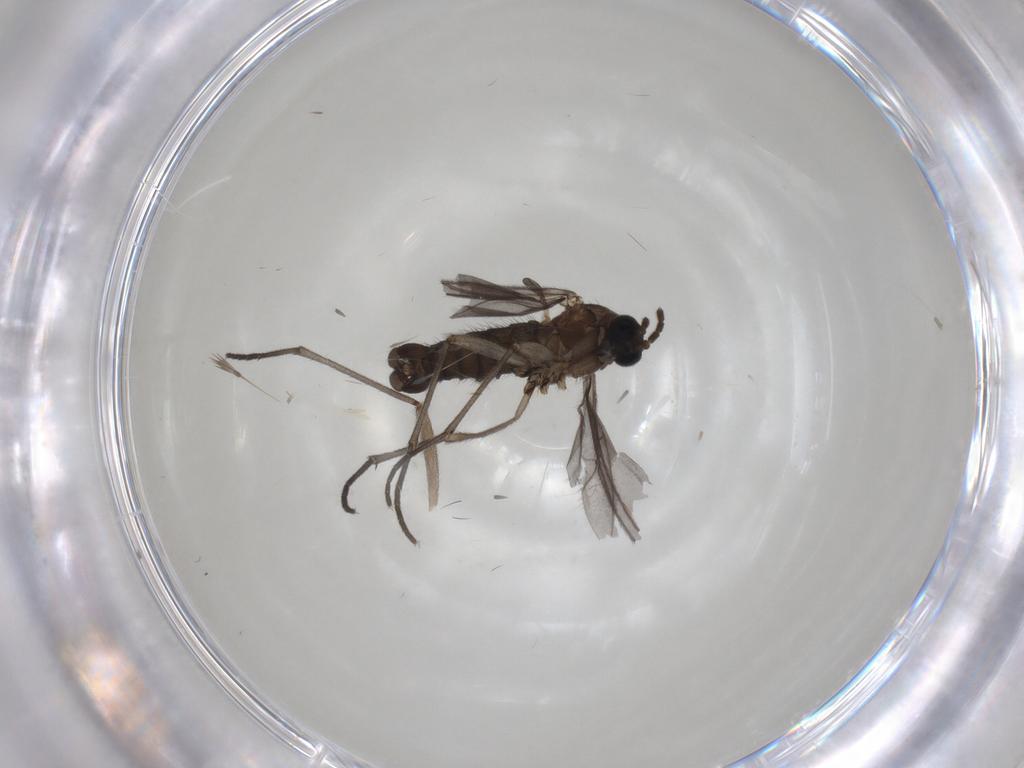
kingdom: Animalia
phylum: Arthropoda
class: Insecta
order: Diptera
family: Sciaridae
